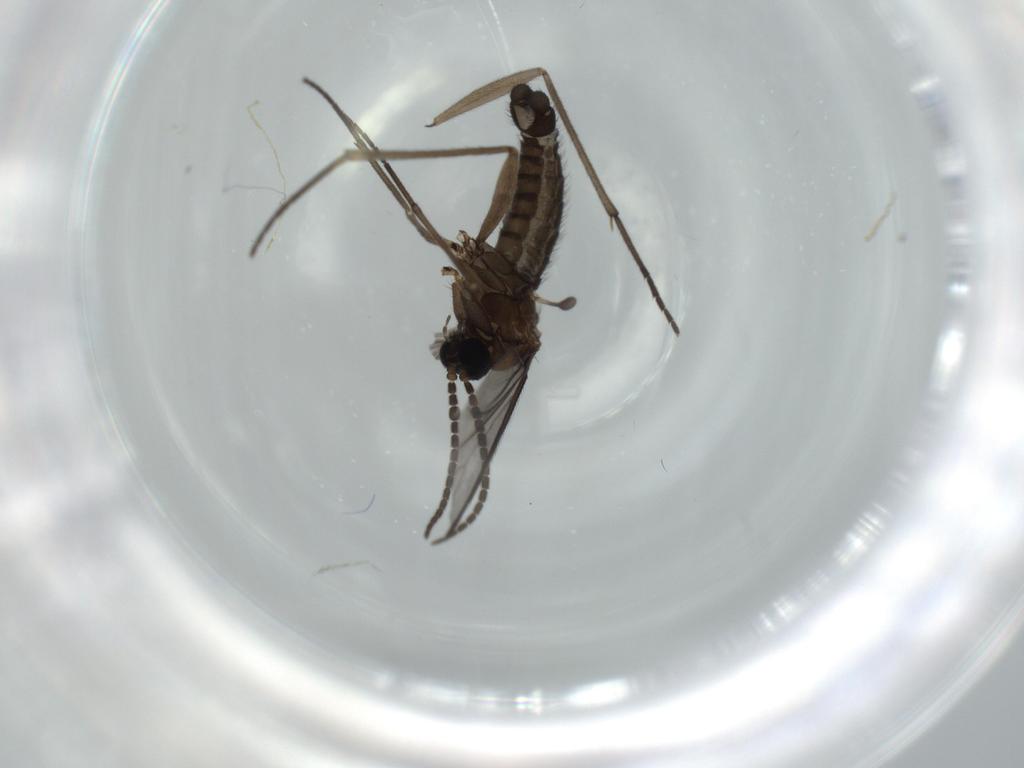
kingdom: Animalia
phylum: Arthropoda
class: Insecta
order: Diptera
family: Sciaridae
